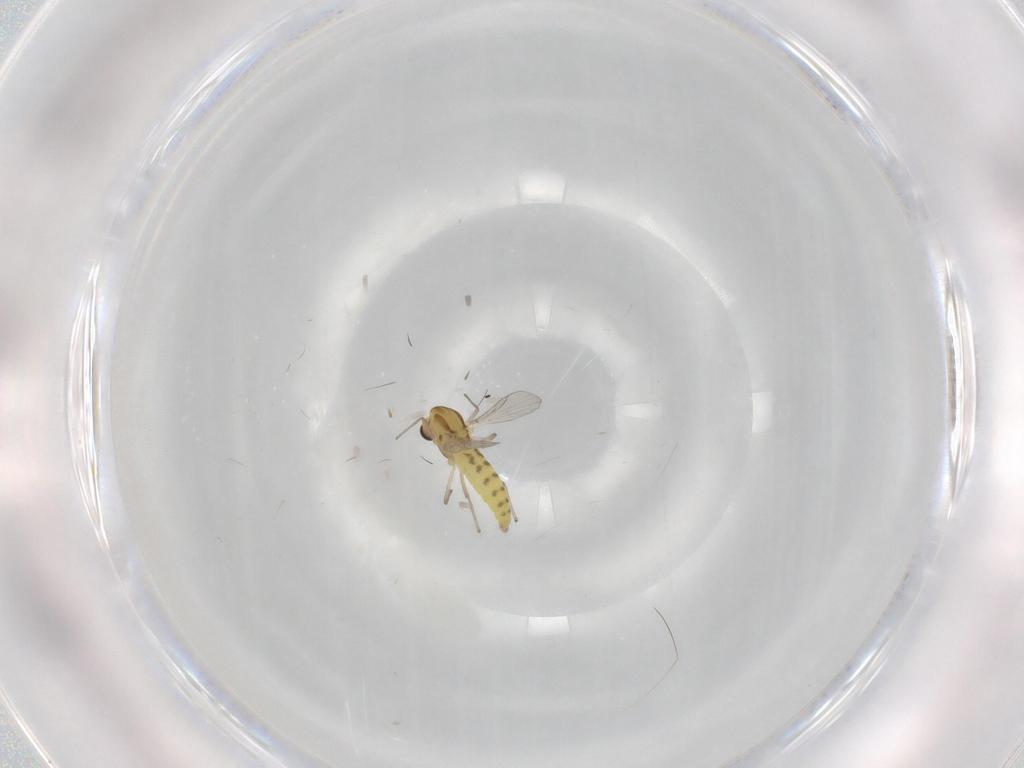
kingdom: Animalia
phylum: Arthropoda
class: Insecta
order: Diptera
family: Chironomidae
